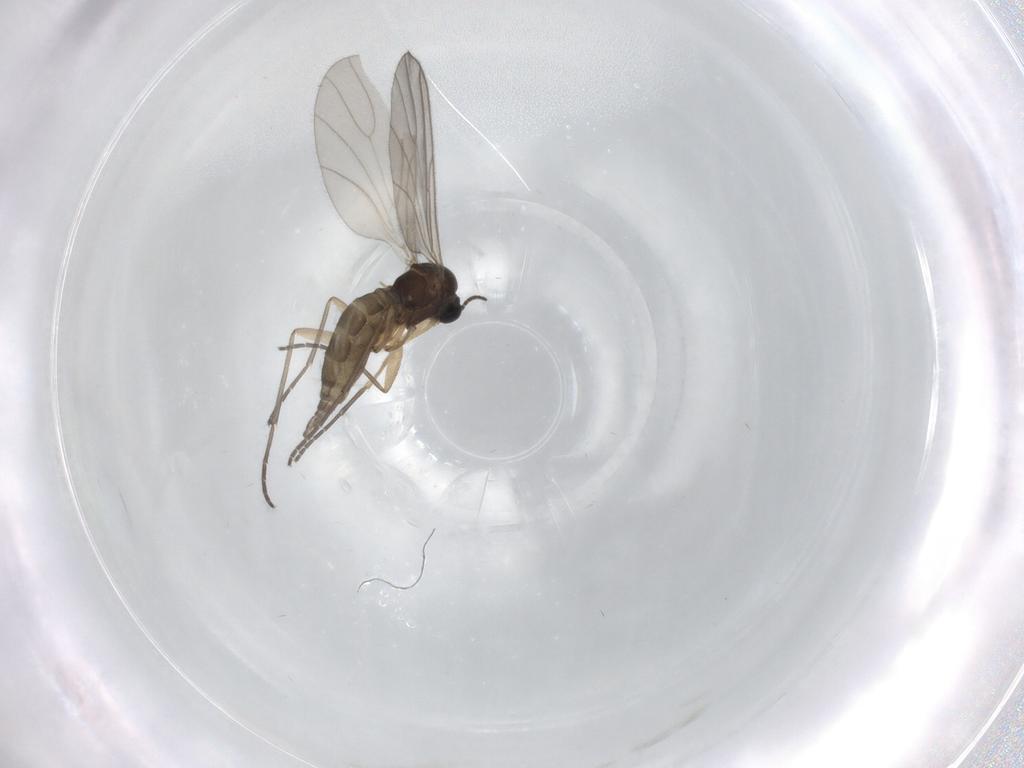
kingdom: Animalia
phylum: Arthropoda
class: Insecta
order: Diptera
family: Sciaridae
